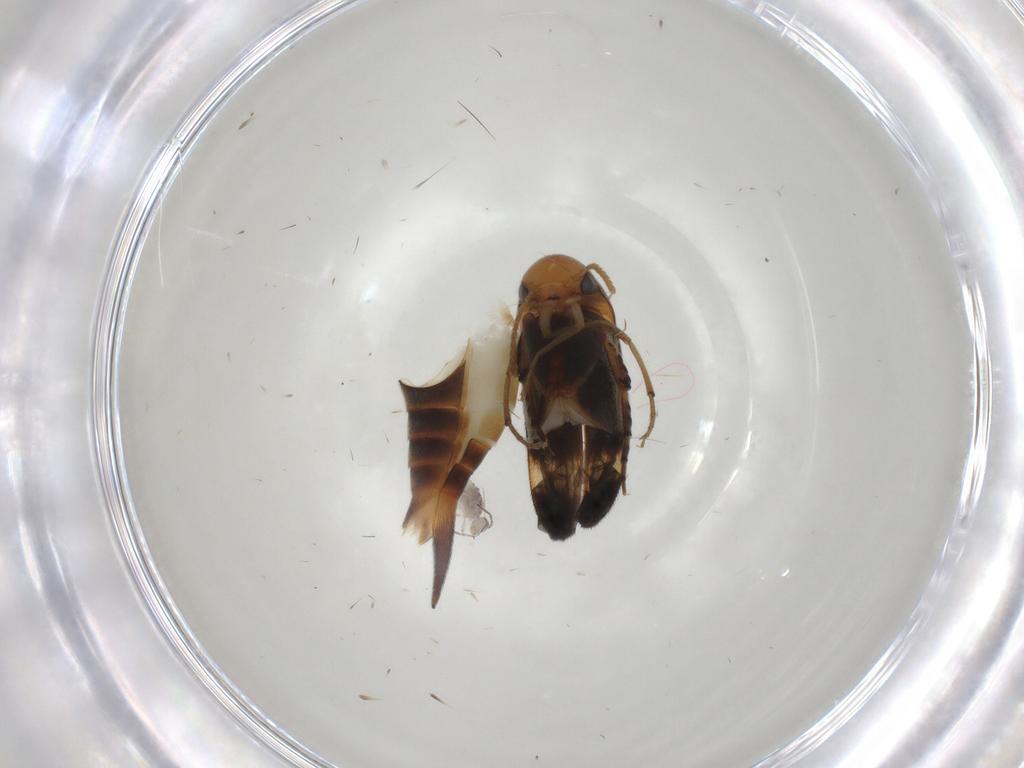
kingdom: Animalia
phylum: Arthropoda
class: Insecta
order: Coleoptera
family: Mordellidae
